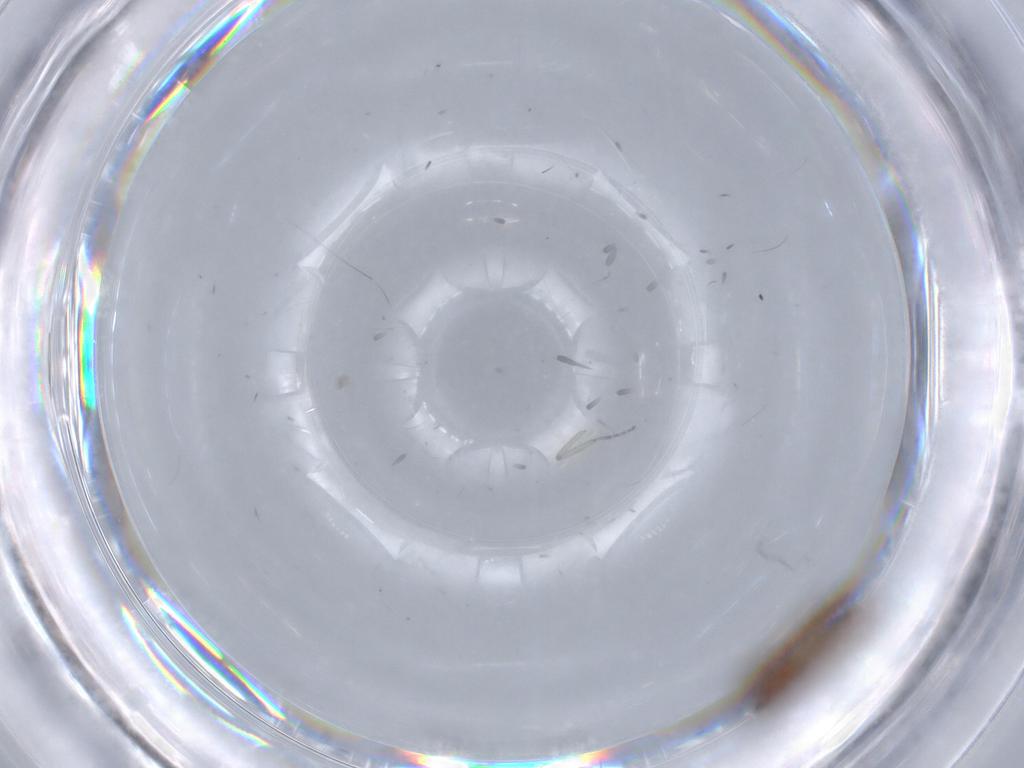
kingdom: Animalia
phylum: Arthropoda
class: Insecta
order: Diptera
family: Ceratopogonidae
